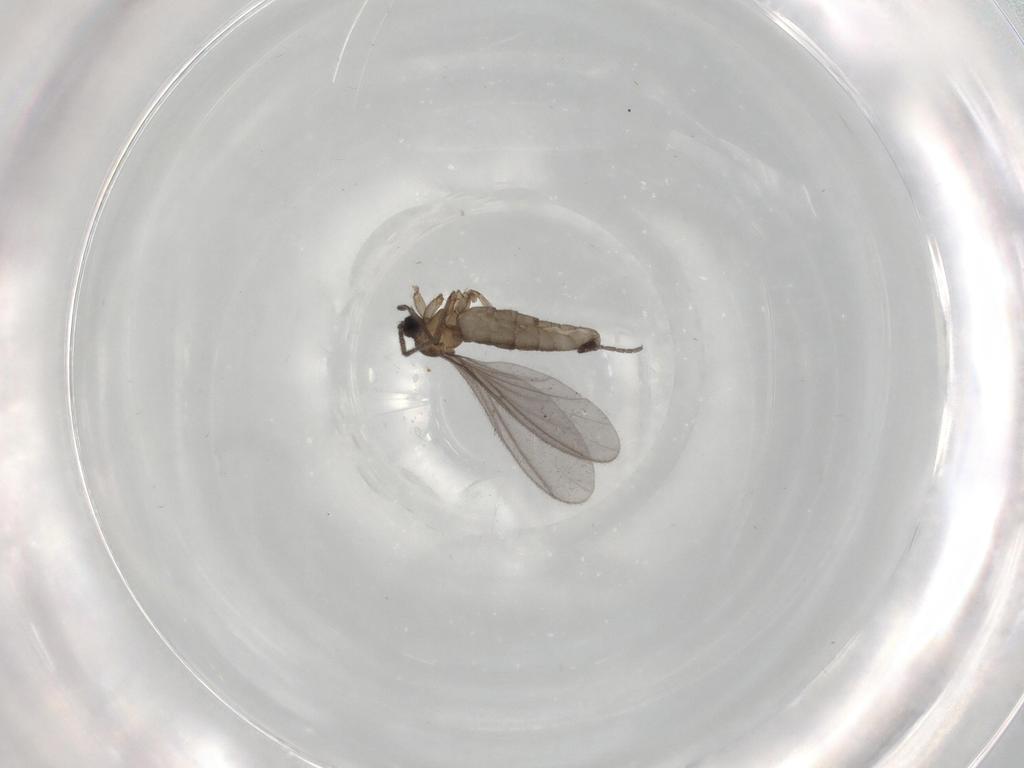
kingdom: Animalia
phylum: Arthropoda
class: Insecta
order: Diptera
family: Sciaridae
